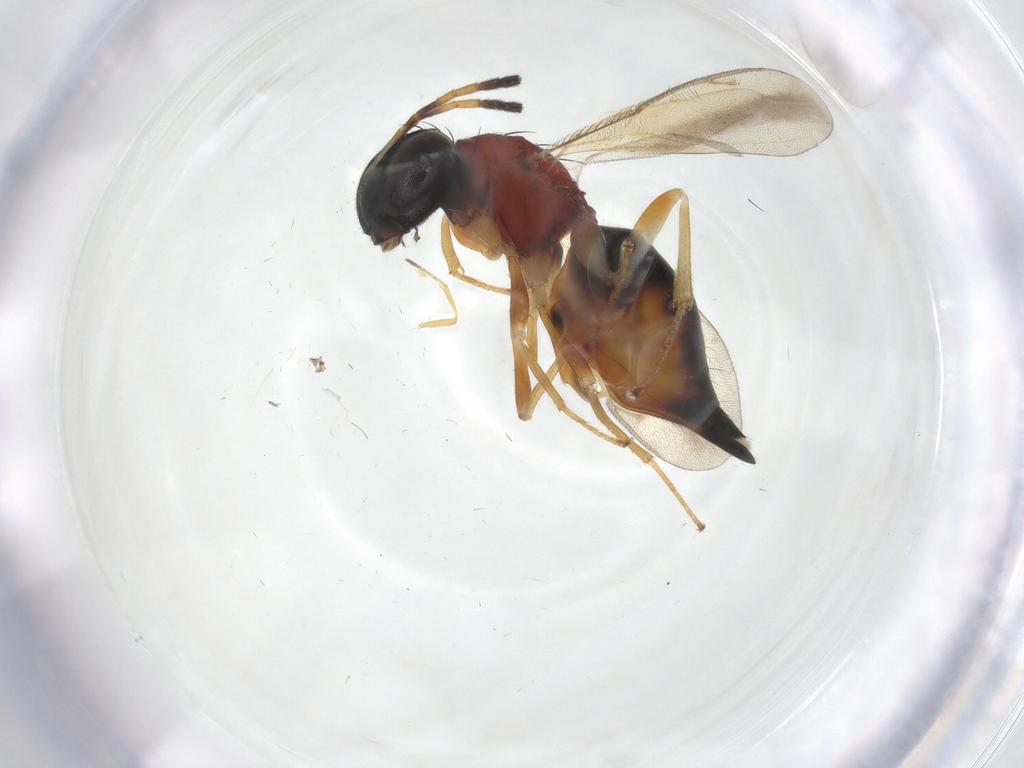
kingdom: Animalia
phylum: Arthropoda
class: Insecta
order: Hymenoptera
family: Diparidae
